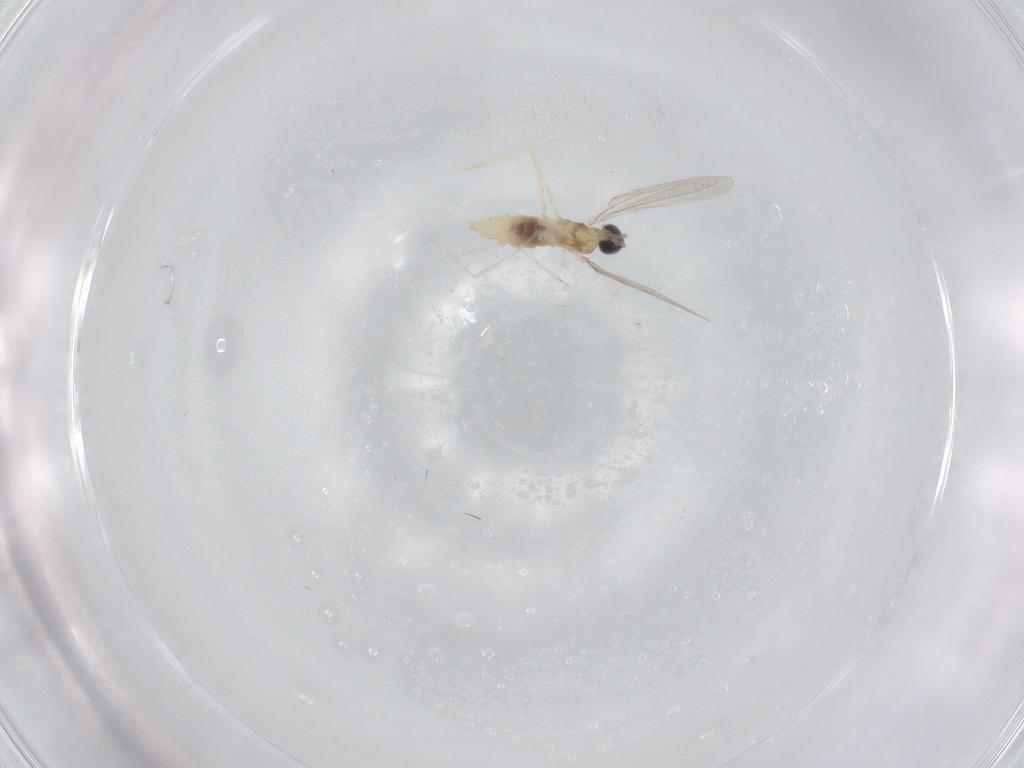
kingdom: Animalia
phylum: Arthropoda
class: Insecta
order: Diptera
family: Cecidomyiidae
